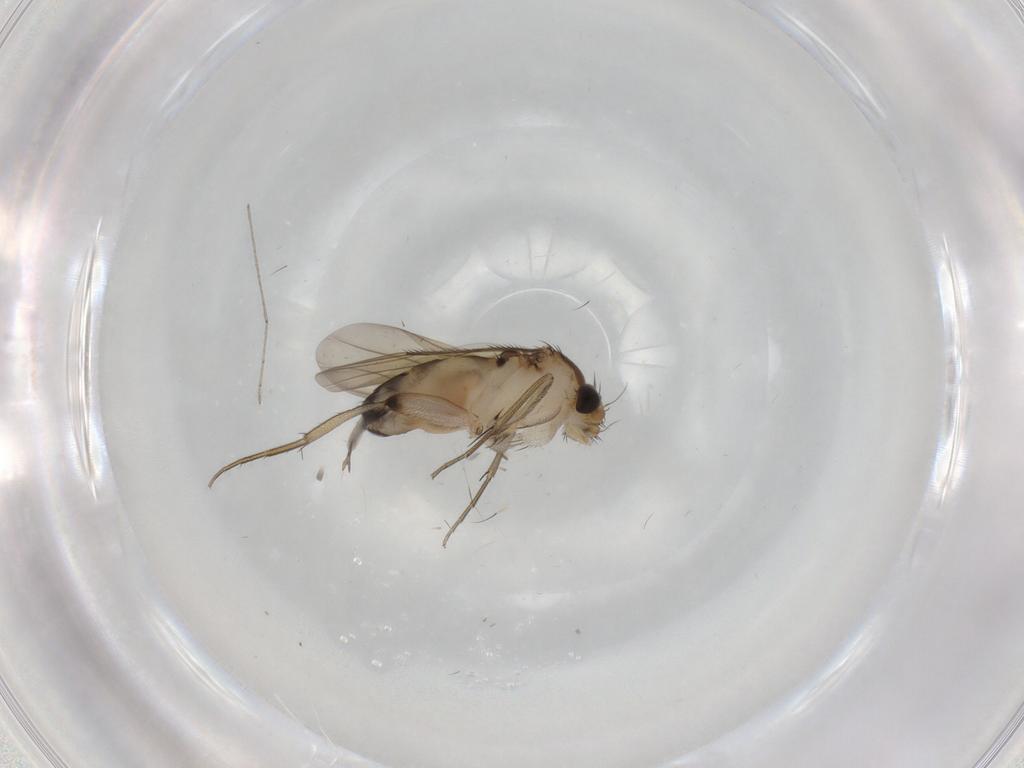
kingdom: Animalia
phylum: Arthropoda
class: Insecta
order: Diptera
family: Phoridae
